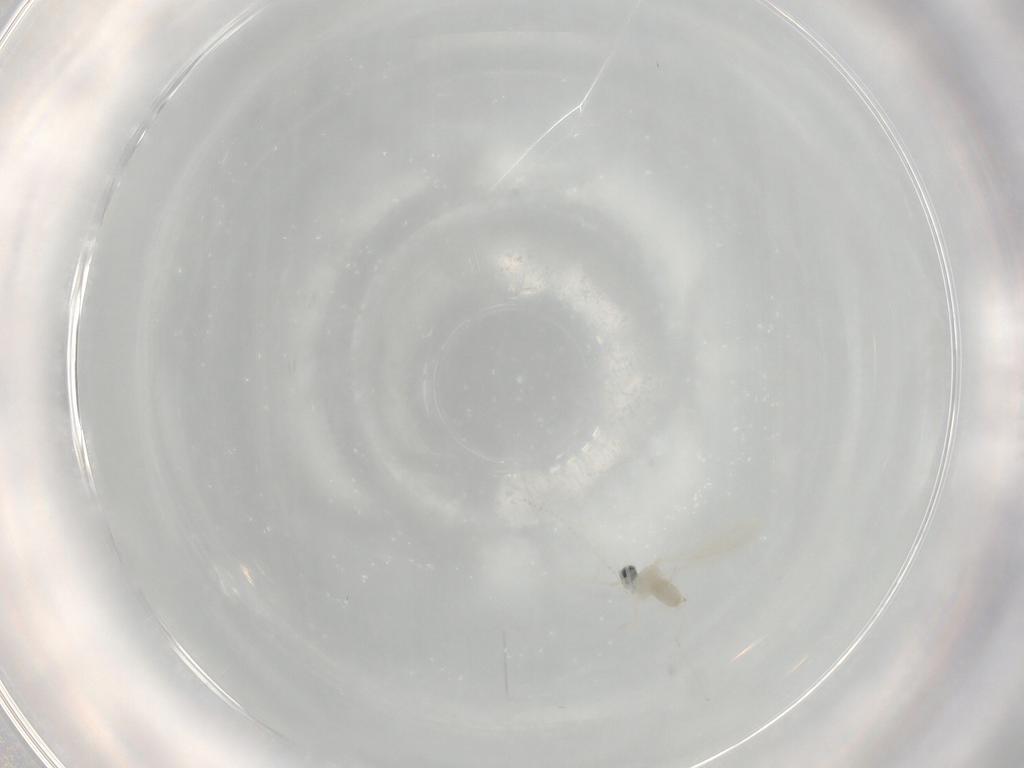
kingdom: Animalia
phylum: Arthropoda
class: Insecta
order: Diptera
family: Cecidomyiidae
